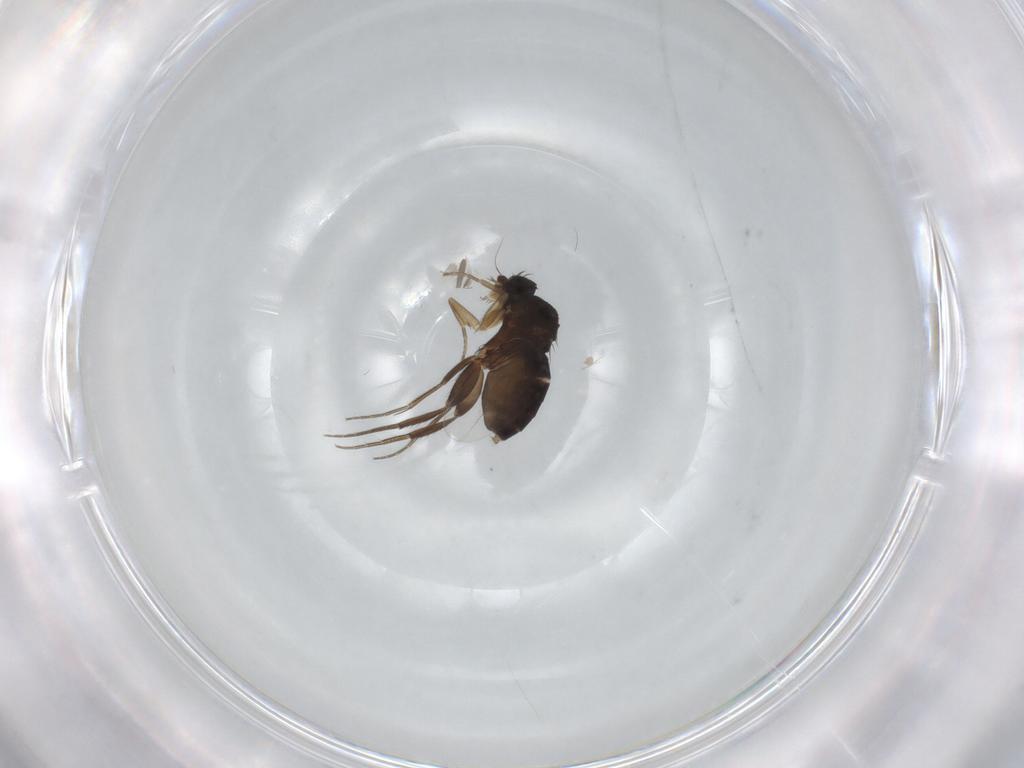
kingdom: Animalia
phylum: Arthropoda
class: Insecta
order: Diptera
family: Phoridae
